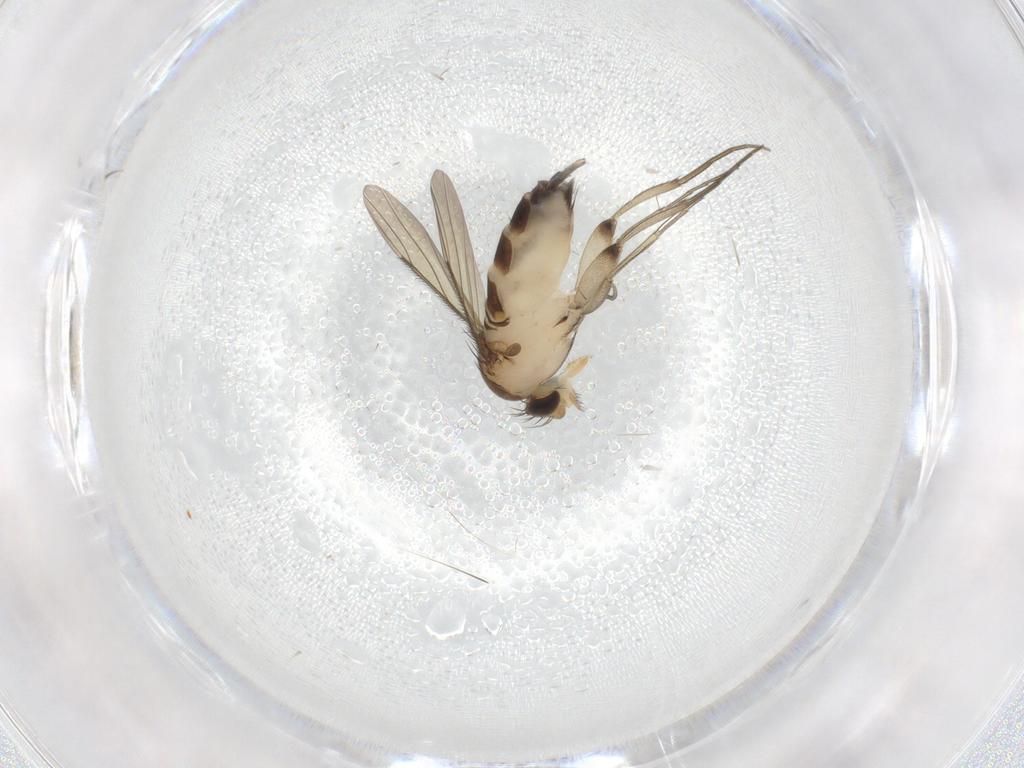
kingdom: Animalia
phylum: Arthropoda
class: Insecta
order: Diptera
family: Phoridae
